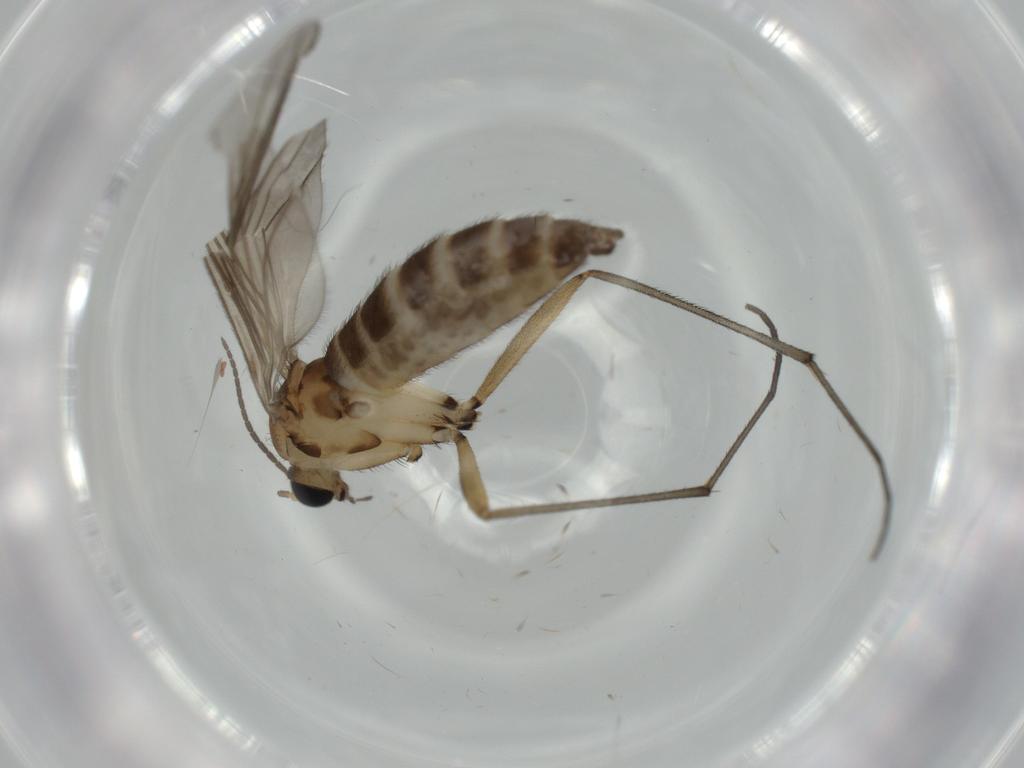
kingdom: Animalia
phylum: Arthropoda
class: Insecta
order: Diptera
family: Sciaridae
